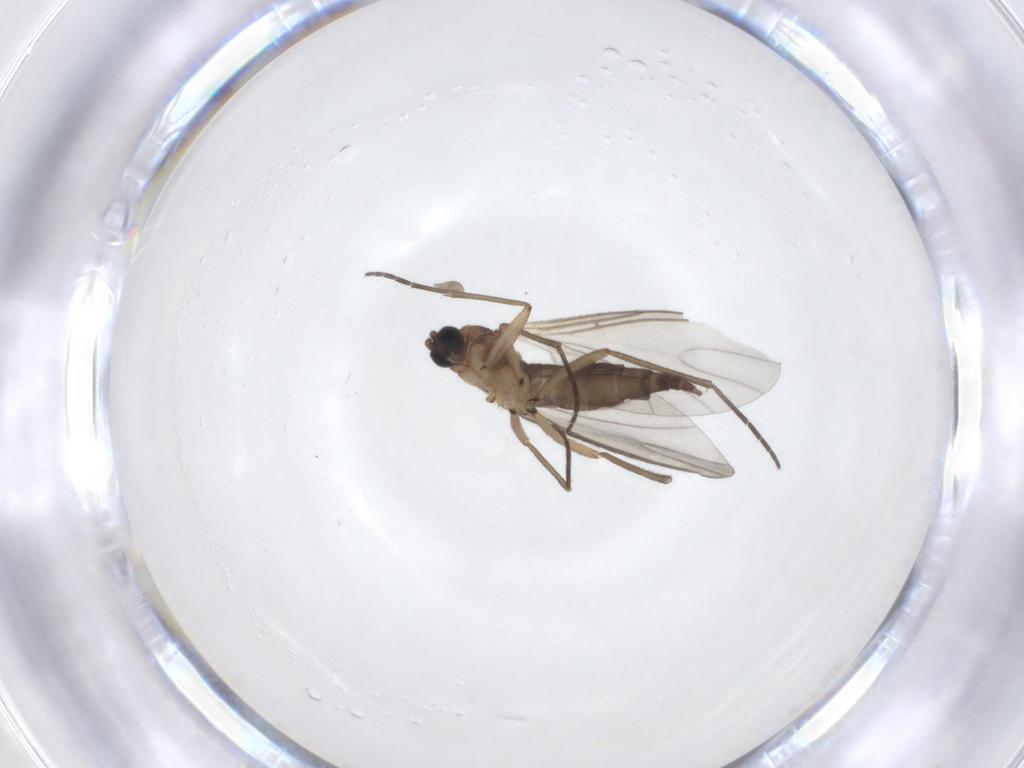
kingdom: Animalia
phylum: Arthropoda
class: Insecta
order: Diptera
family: Sciaridae
